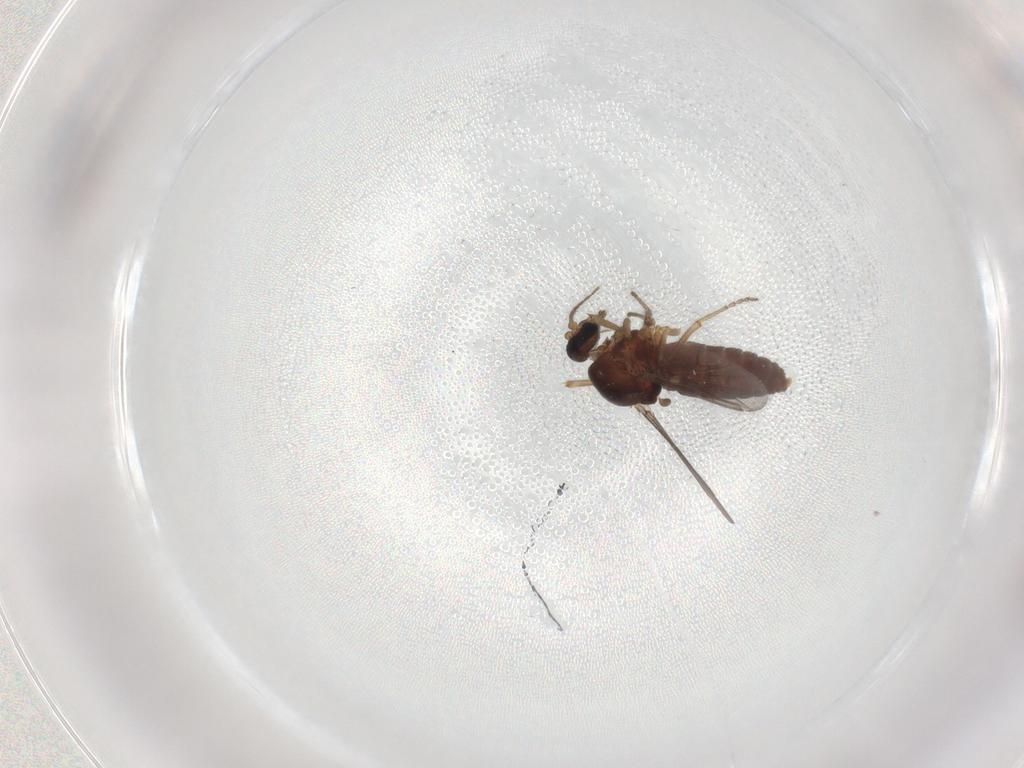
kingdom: Animalia
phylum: Arthropoda
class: Insecta
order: Diptera
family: Ceratopogonidae
